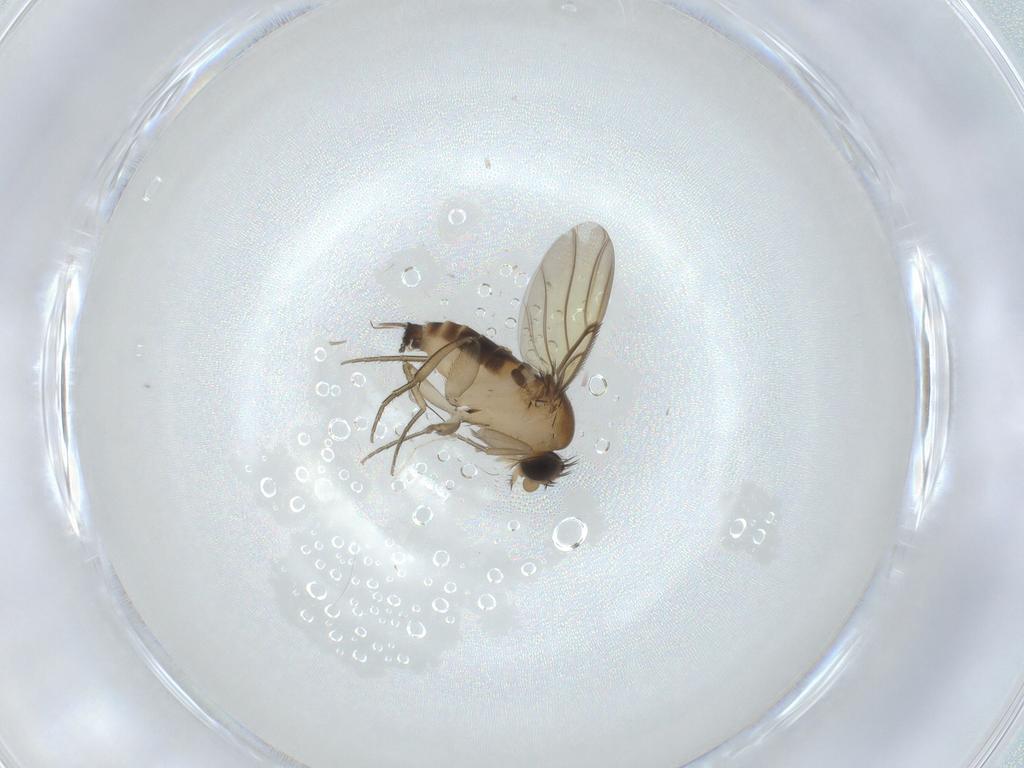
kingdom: Animalia
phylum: Arthropoda
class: Insecta
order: Diptera
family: Phoridae
